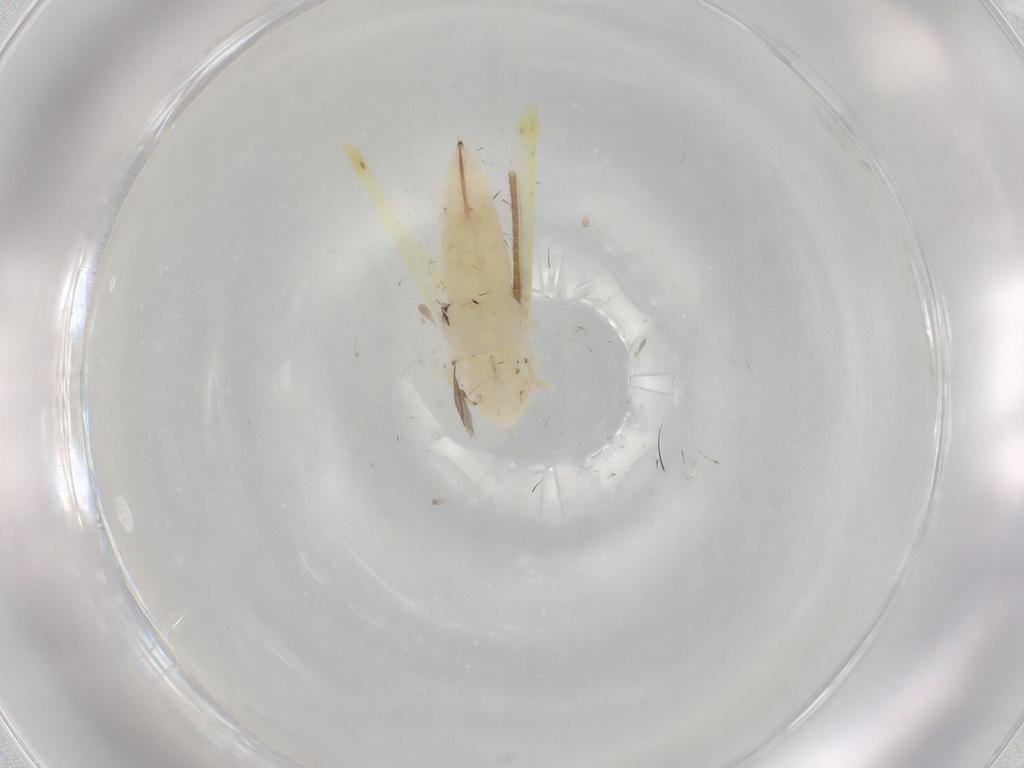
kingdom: Animalia
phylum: Arthropoda
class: Insecta
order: Hemiptera
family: Cicadellidae
